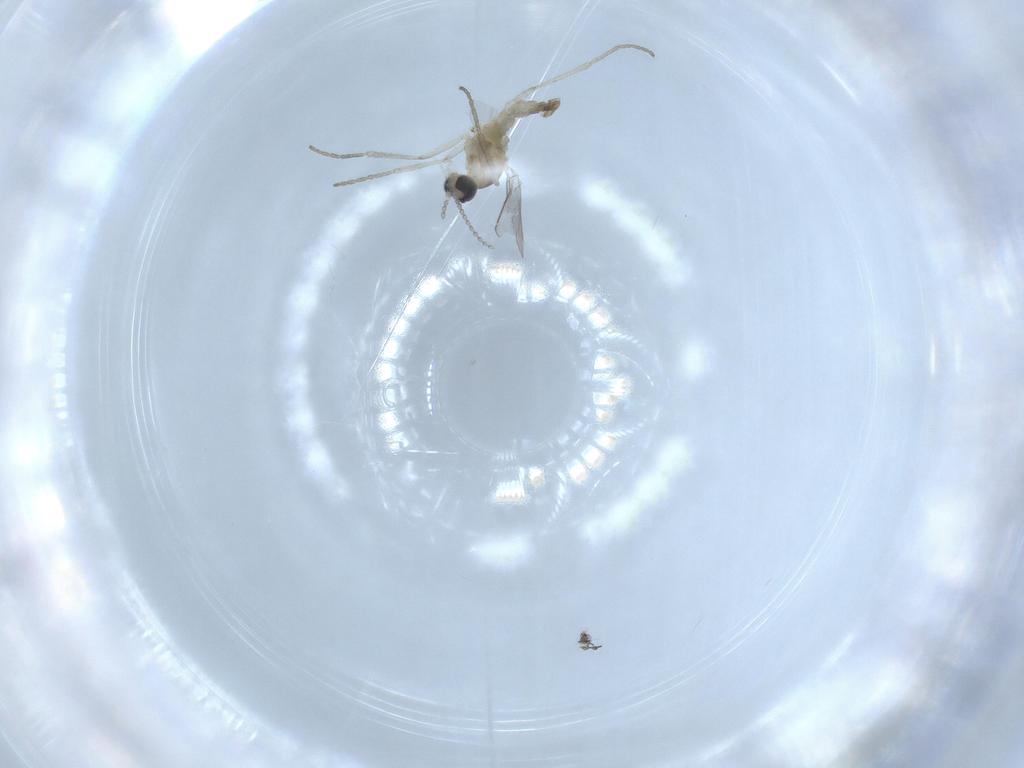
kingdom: Animalia
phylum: Arthropoda
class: Insecta
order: Diptera
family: Cecidomyiidae
